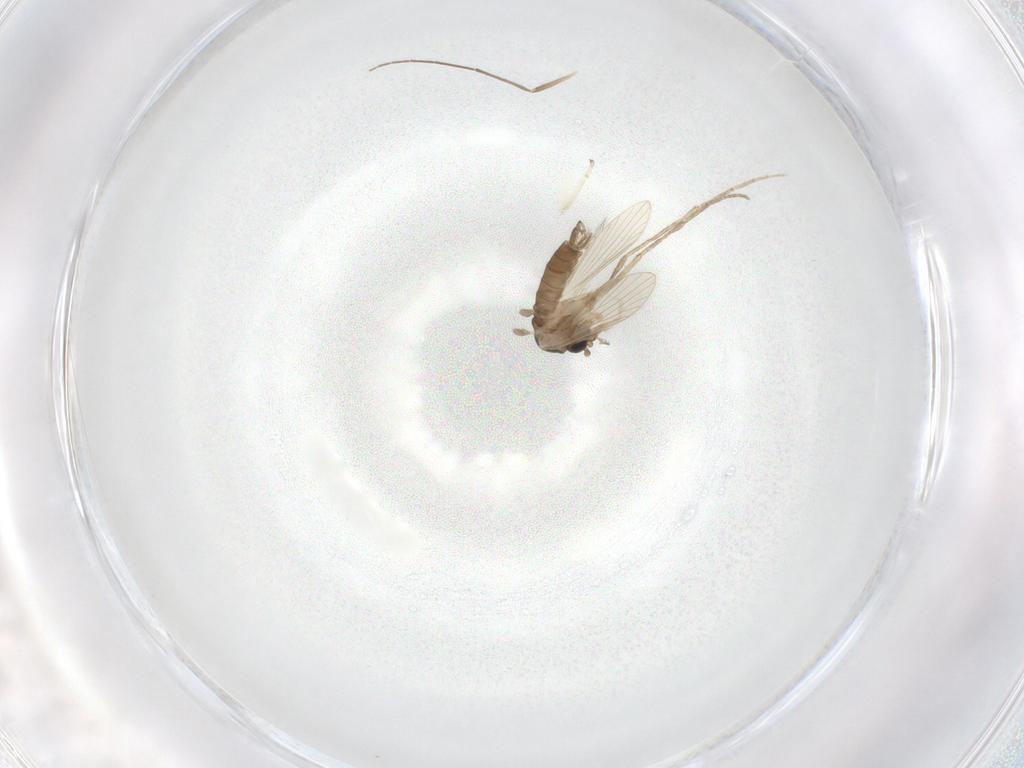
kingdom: Animalia
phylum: Arthropoda
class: Insecta
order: Diptera
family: Psychodidae
